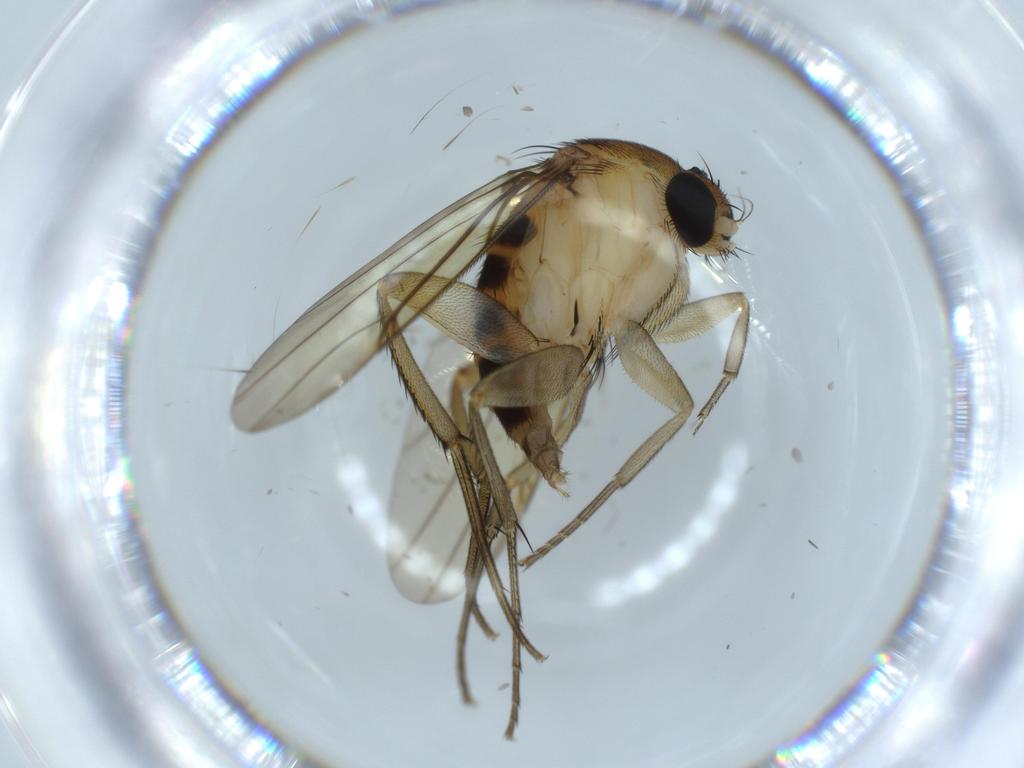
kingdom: Animalia
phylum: Arthropoda
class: Insecta
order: Diptera
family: Phoridae
